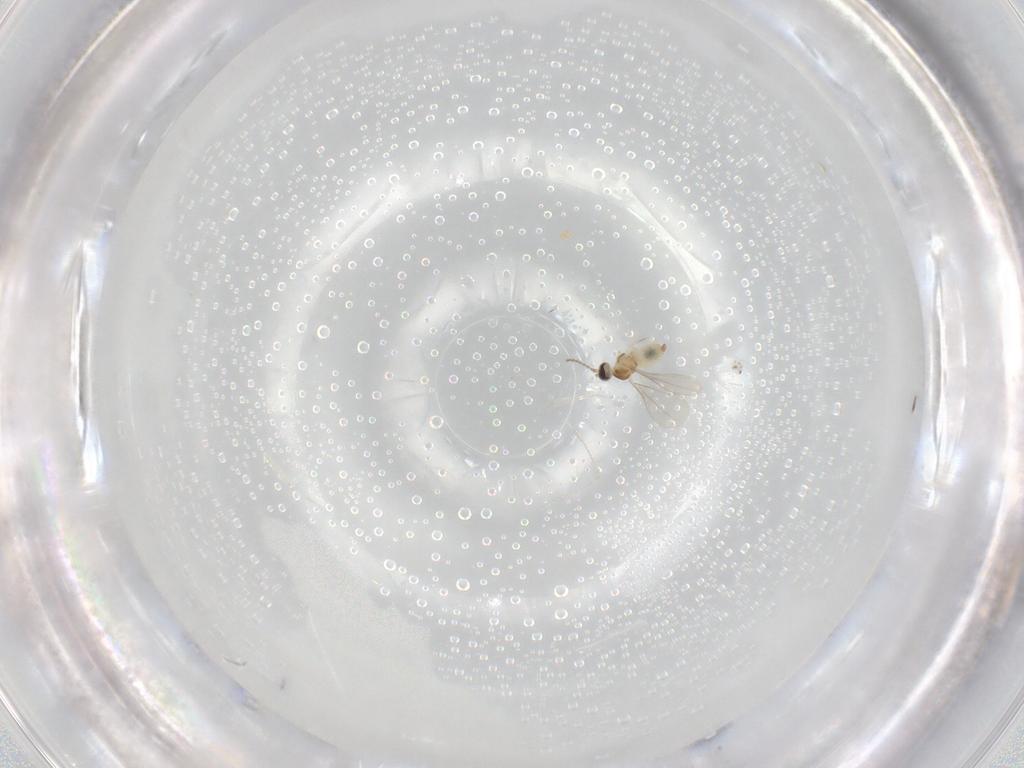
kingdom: Animalia
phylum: Arthropoda
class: Insecta
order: Diptera
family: Cecidomyiidae
